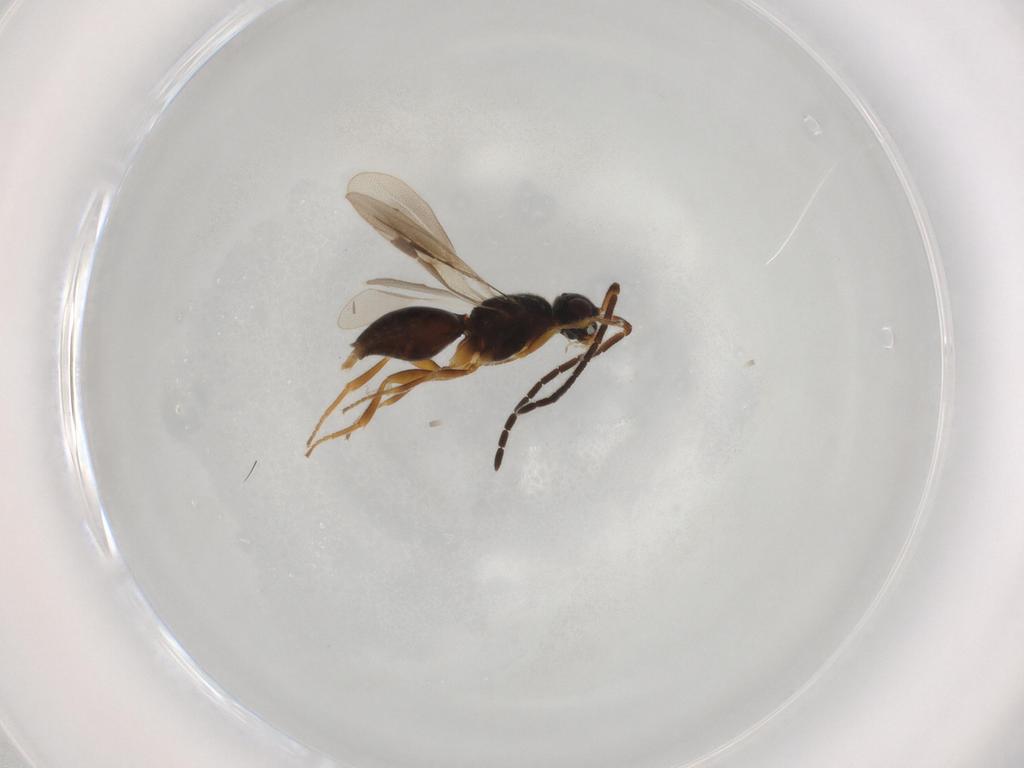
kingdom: Animalia
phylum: Arthropoda
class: Insecta
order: Hymenoptera
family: Megaspilidae
